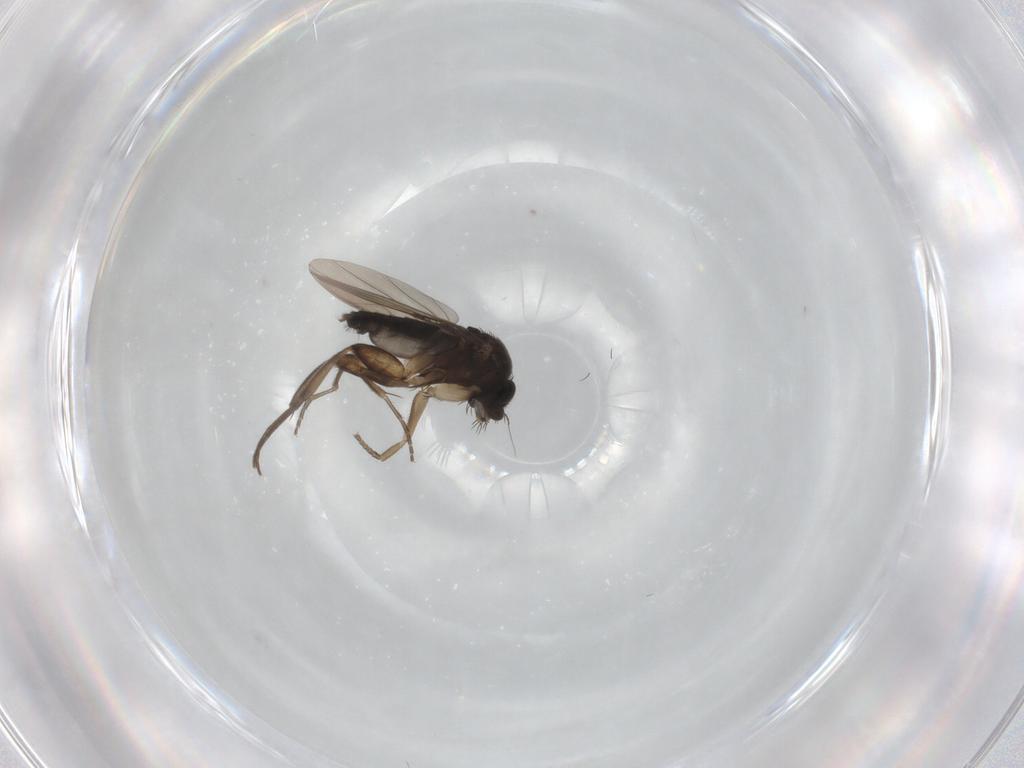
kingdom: Animalia
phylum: Arthropoda
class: Insecta
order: Diptera
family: Phoridae
